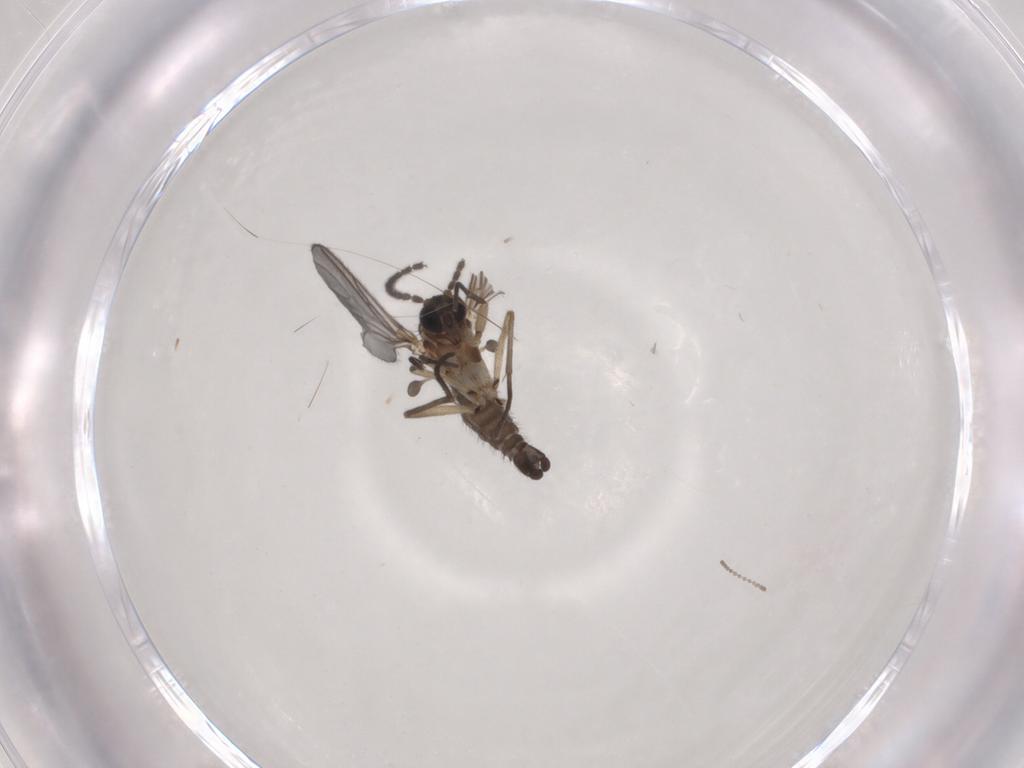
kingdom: Animalia
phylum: Arthropoda
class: Insecta
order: Diptera
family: Sciaridae
